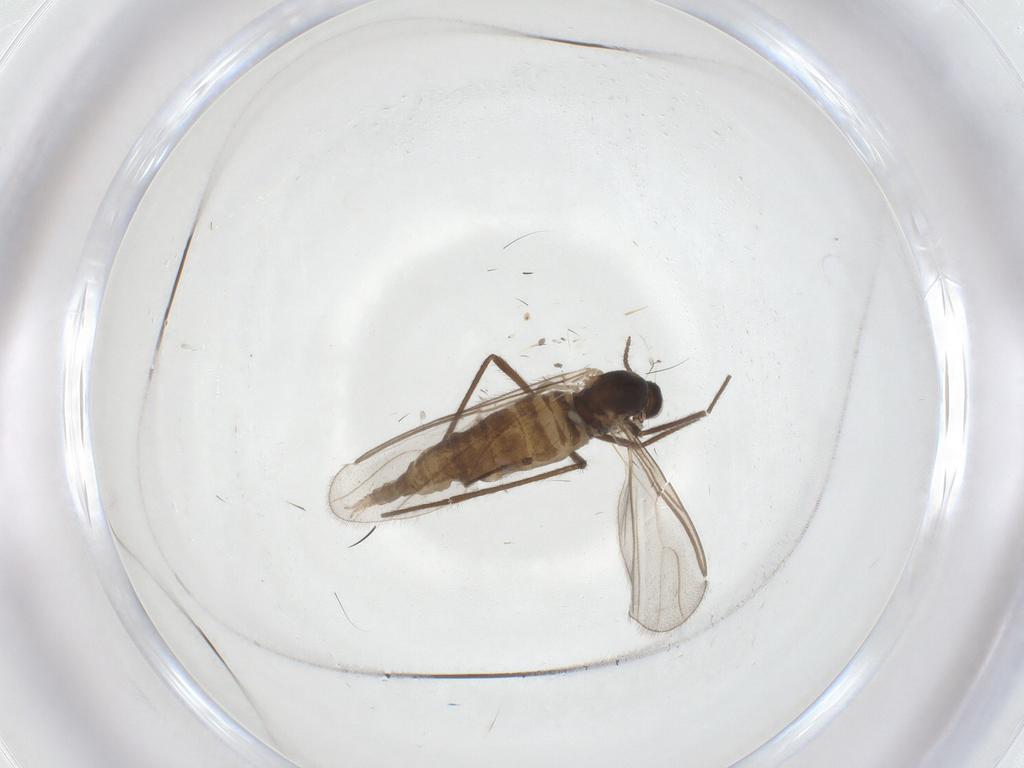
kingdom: Animalia
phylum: Arthropoda
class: Insecta
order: Diptera
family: Cecidomyiidae
